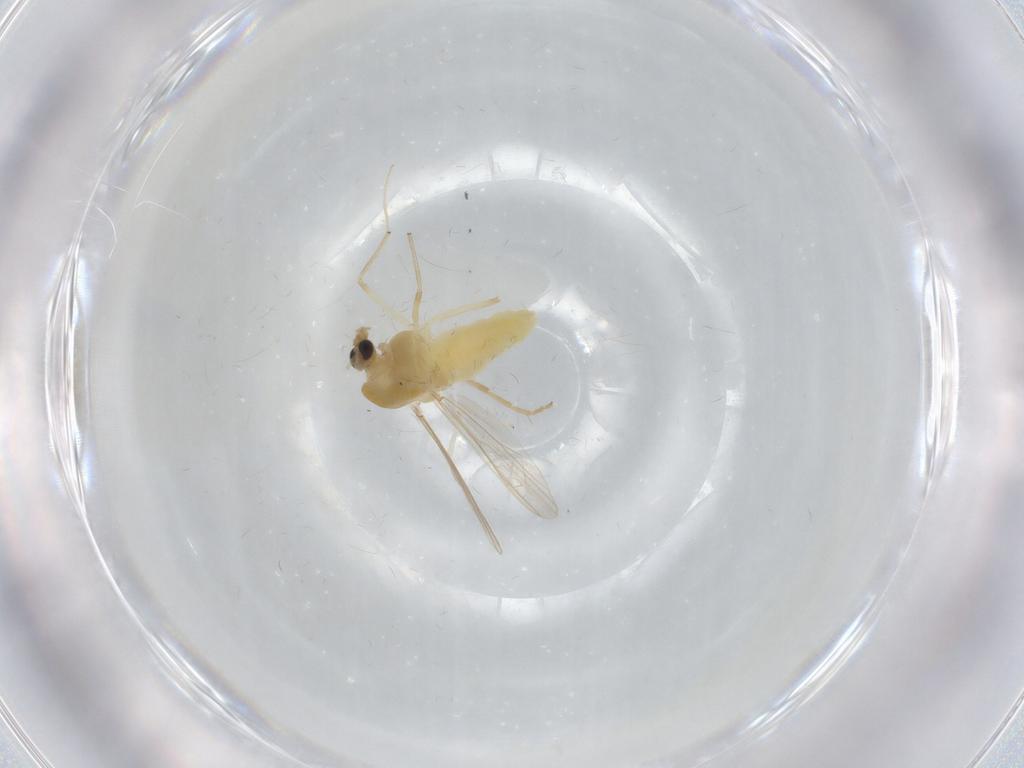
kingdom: Animalia
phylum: Arthropoda
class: Insecta
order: Diptera
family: Chironomidae
